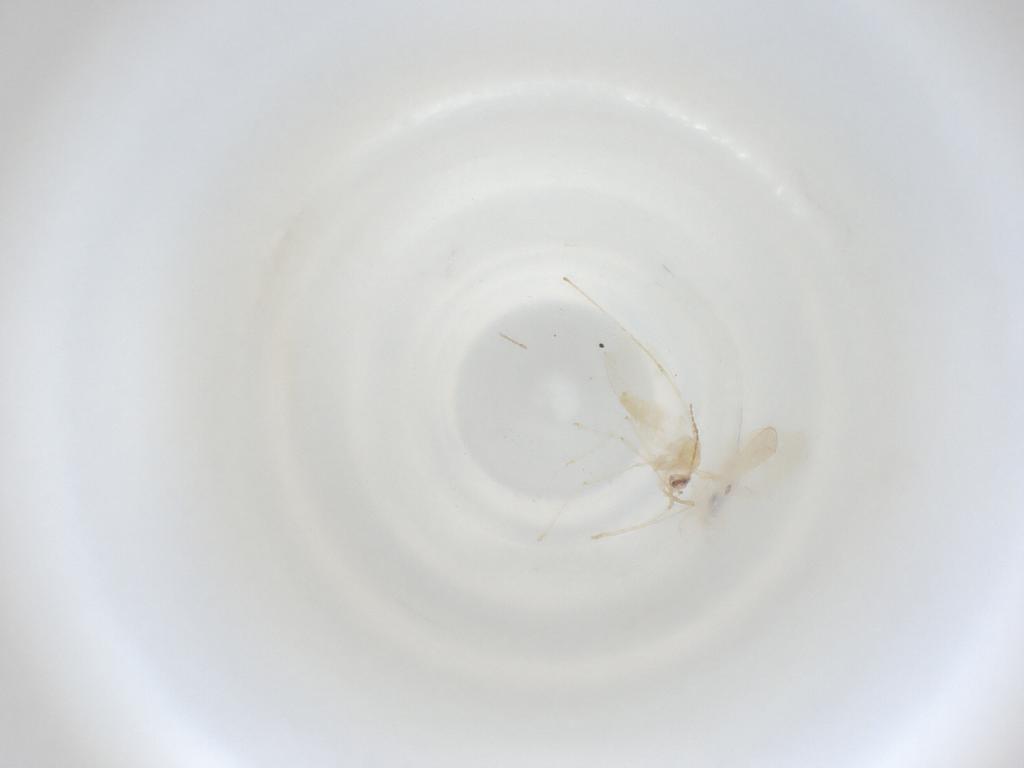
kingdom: Animalia
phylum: Arthropoda
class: Insecta
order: Diptera
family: Cecidomyiidae
